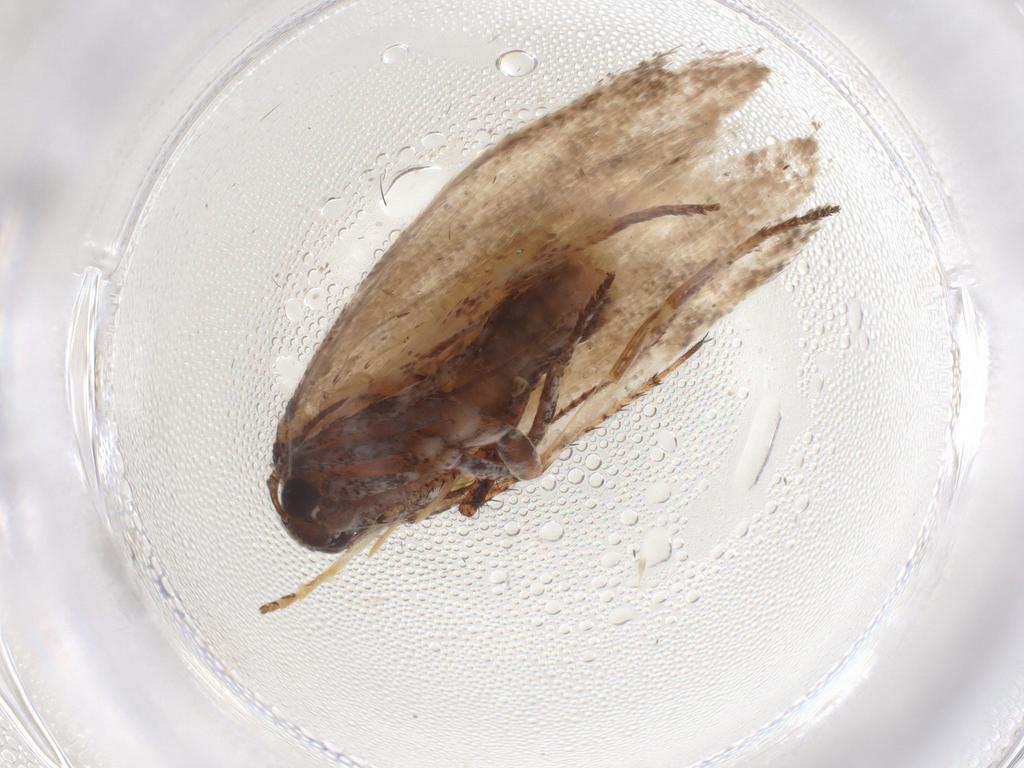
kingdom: Animalia
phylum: Arthropoda
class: Insecta
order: Lepidoptera
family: Cosmopterigidae
